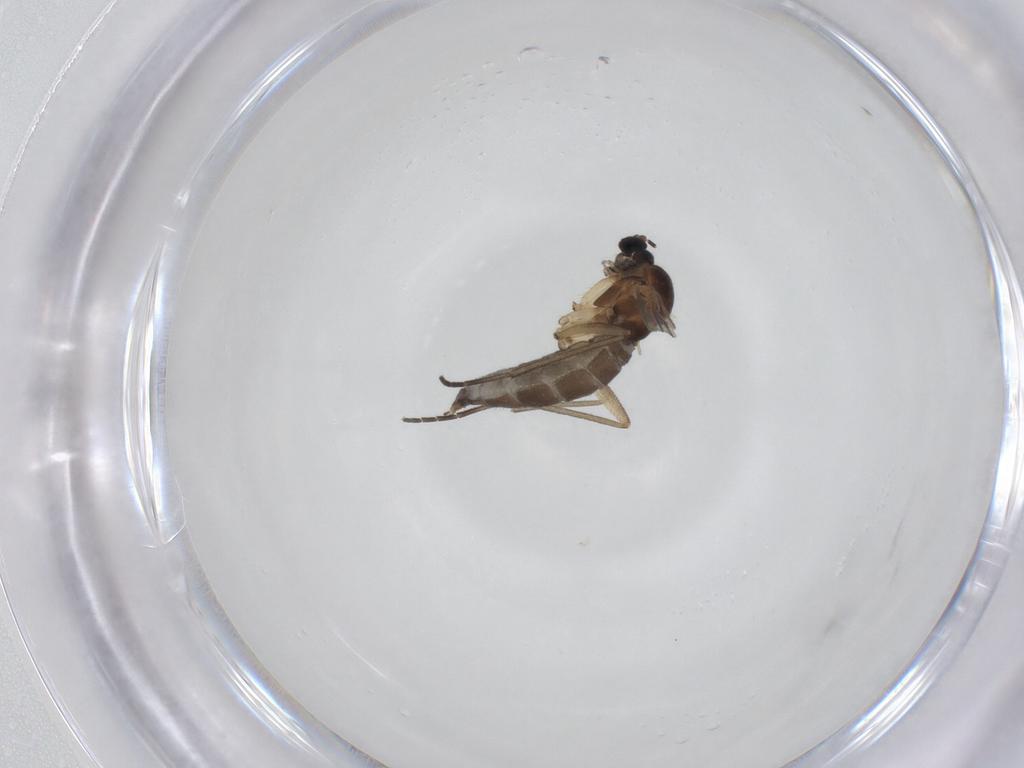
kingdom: Animalia
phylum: Arthropoda
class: Insecta
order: Diptera
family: Sciaridae
